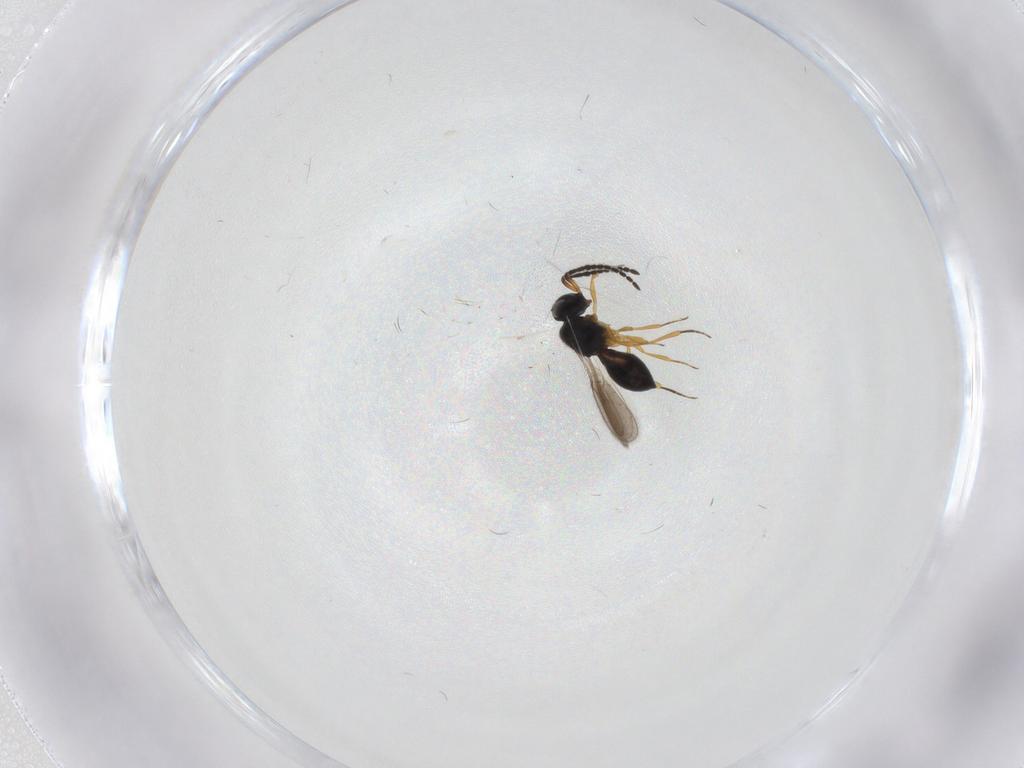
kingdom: Animalia
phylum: Arthropoda
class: Insecta
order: Hymenoptera
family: Scelionidae
